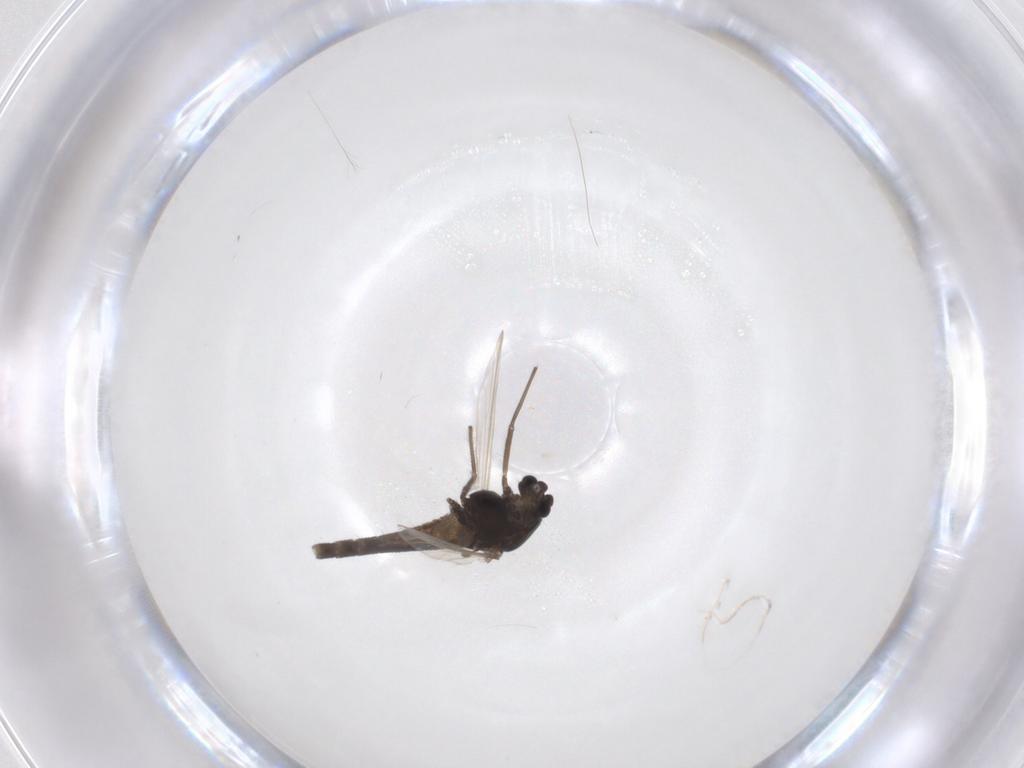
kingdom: Animalia
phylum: Arthropoda
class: Insecta
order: Diptera
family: Chironomidae
